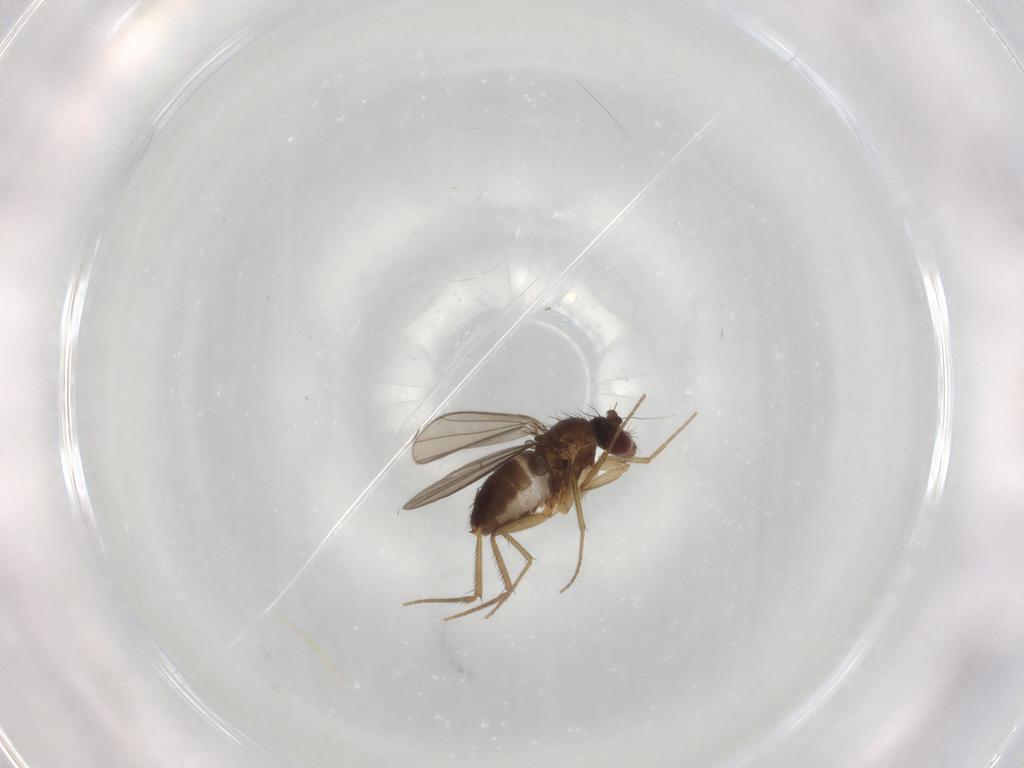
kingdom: Animalia
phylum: Arthropoda
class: Insecta
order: Diptera
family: Dolichopodidae
